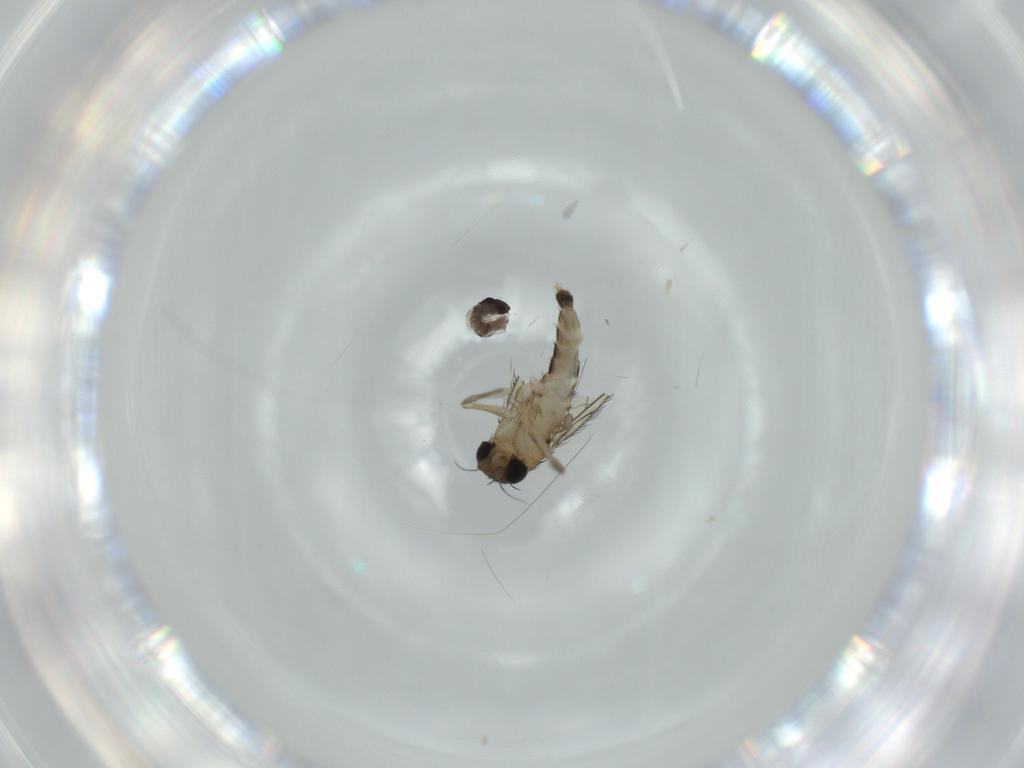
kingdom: Animalia
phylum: Arthropoda
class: Insecta
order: Diptera
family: Phoridae
